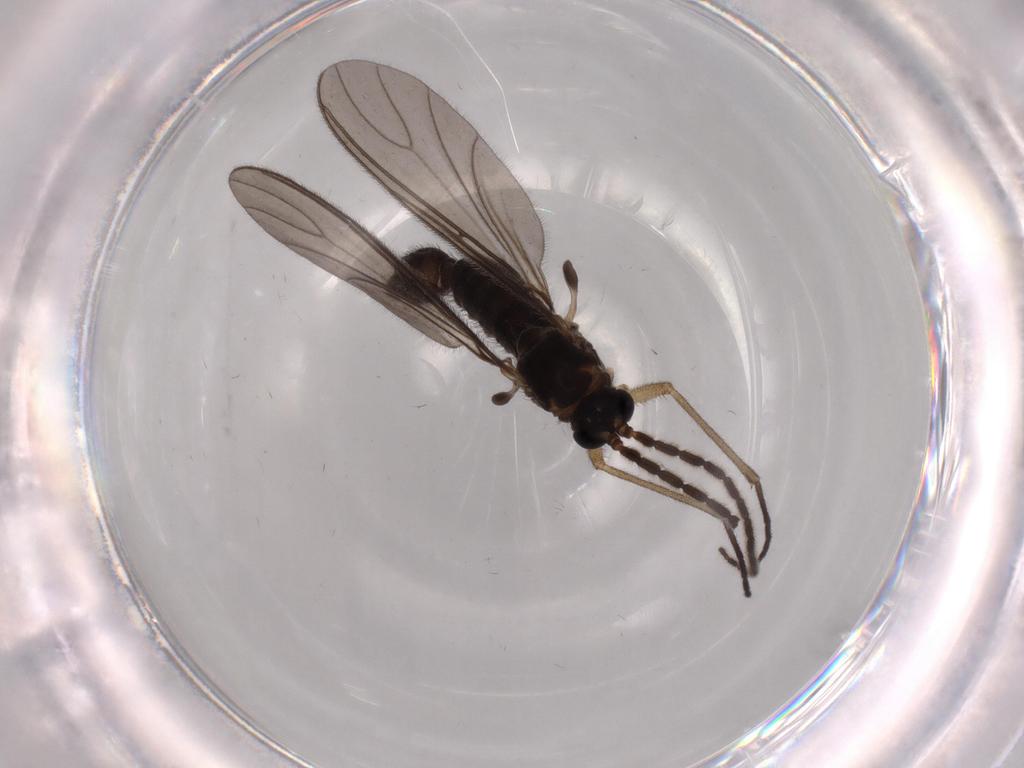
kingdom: Animalia
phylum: Arthropoda
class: Insecta
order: Diptera
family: Sciaridae
